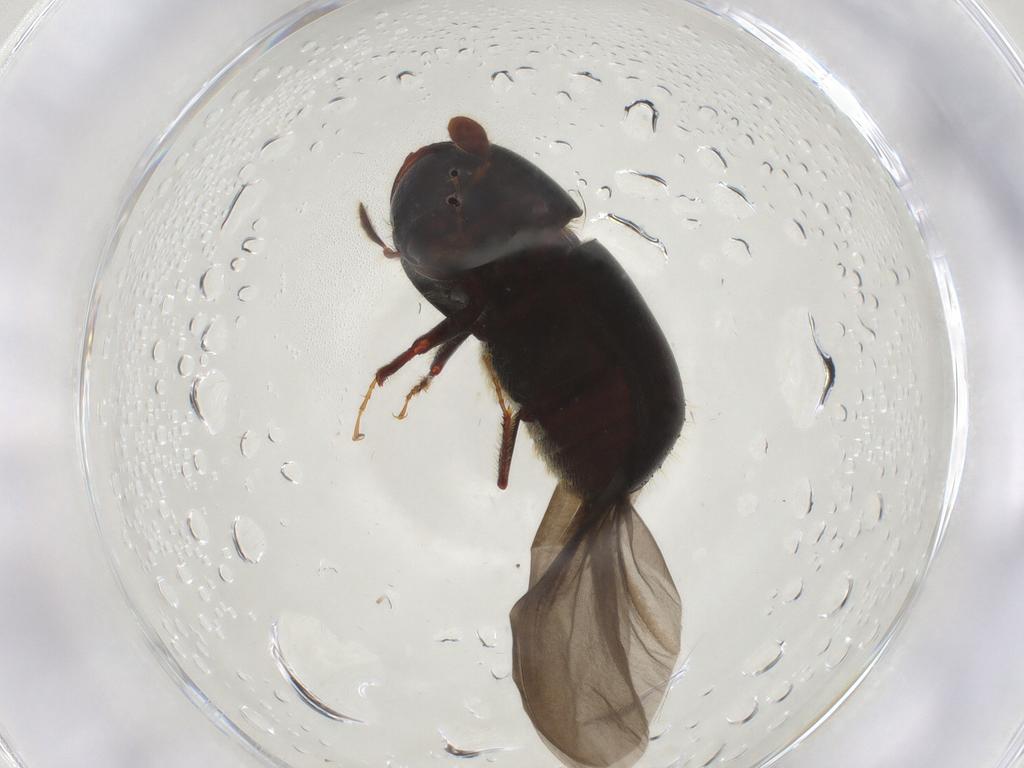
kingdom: Animalia
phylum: Arthropoda
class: Insecta
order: Coleoptera
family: Curculionidae
